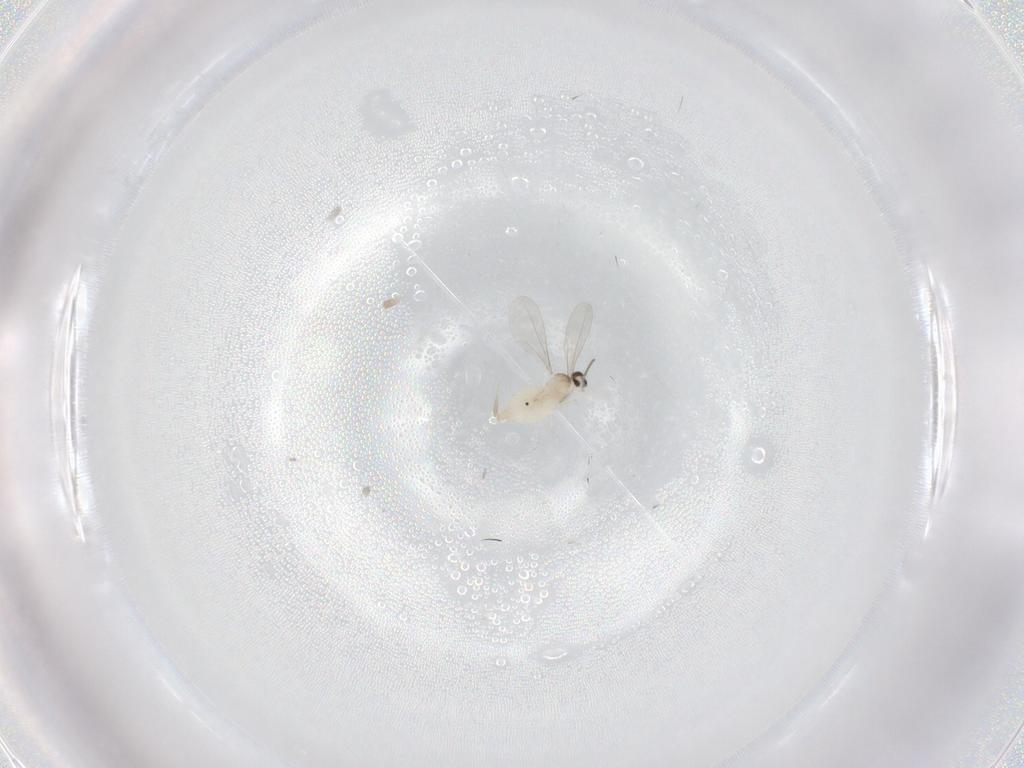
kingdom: Animalia
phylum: Arthropoda
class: Insecta
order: Diptera
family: Cecidomyiidae
